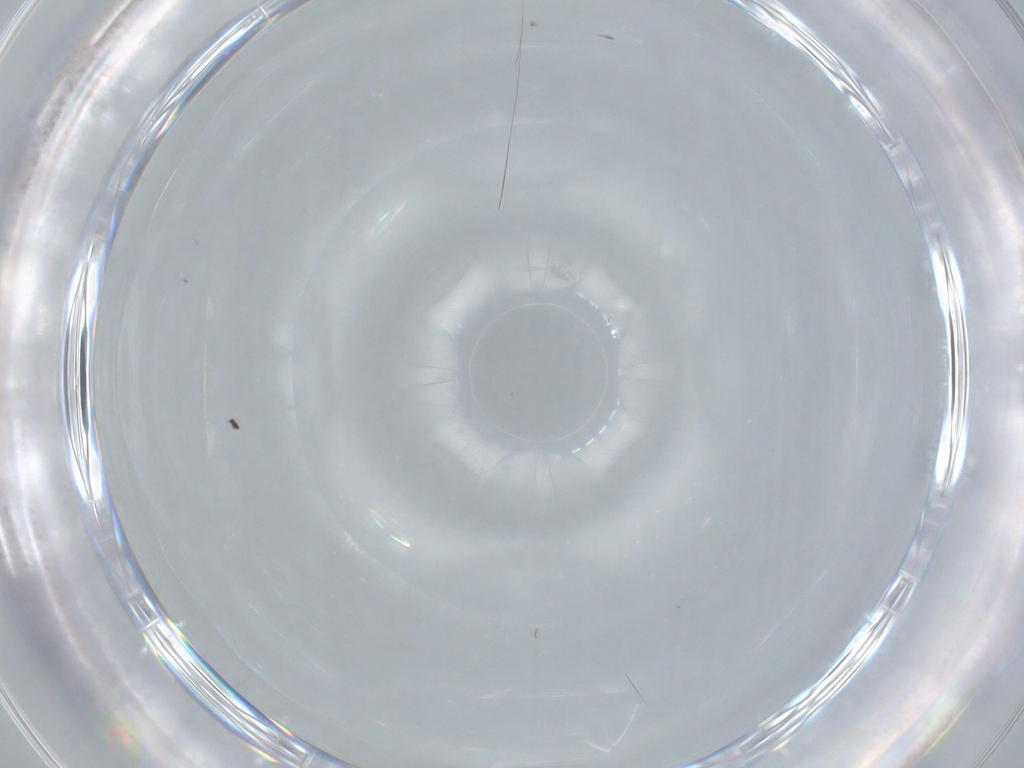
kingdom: Animalia
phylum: Arthropoda
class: Insecta
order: Diptera
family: Cecidomyiidae
